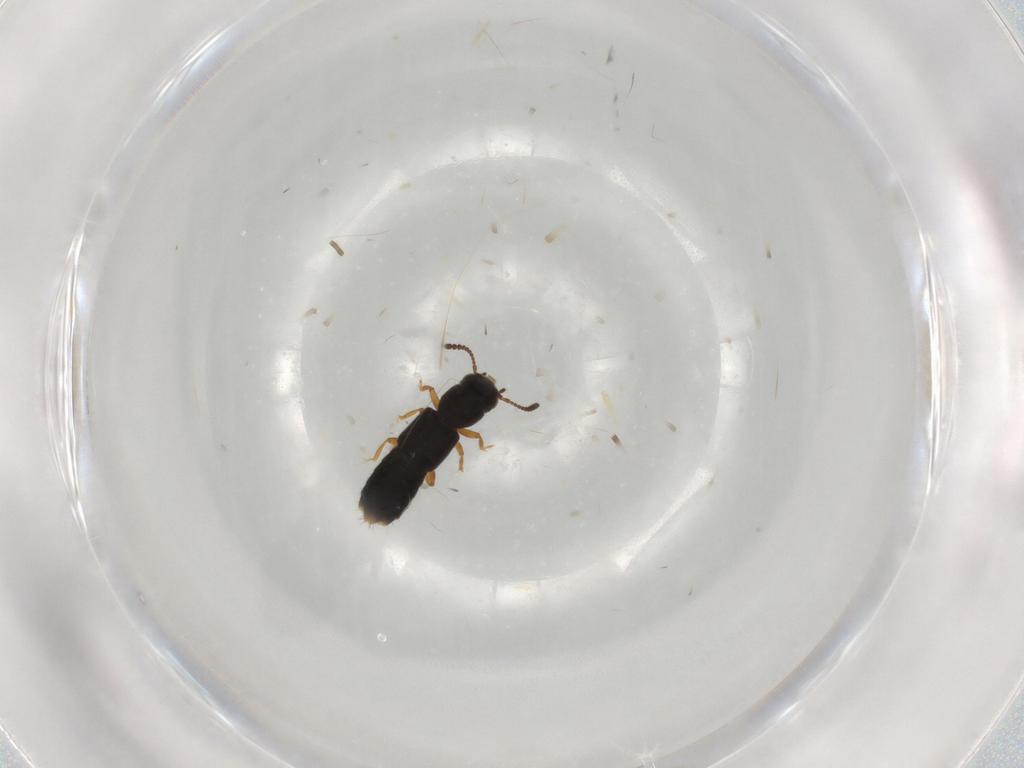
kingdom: Animalia
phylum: Arthropoda
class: Insecta
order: Coleoptera
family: Staphylinidae
